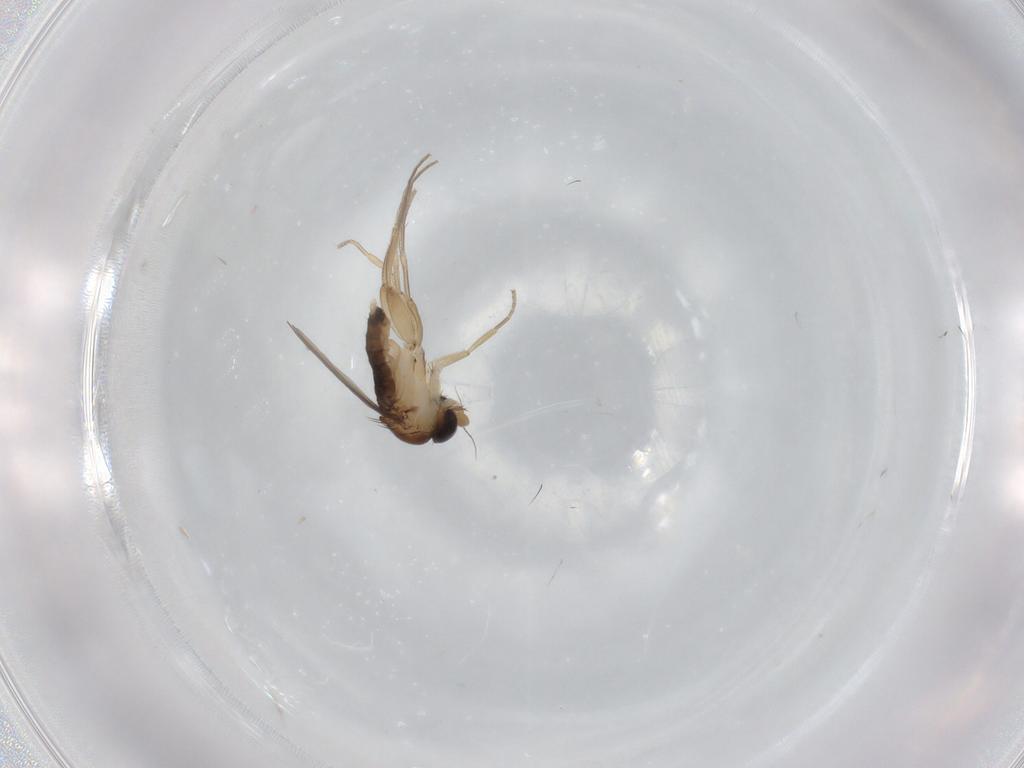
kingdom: Animalia
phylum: Arthropoda
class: Insecta
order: Diptera
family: Phoridae
